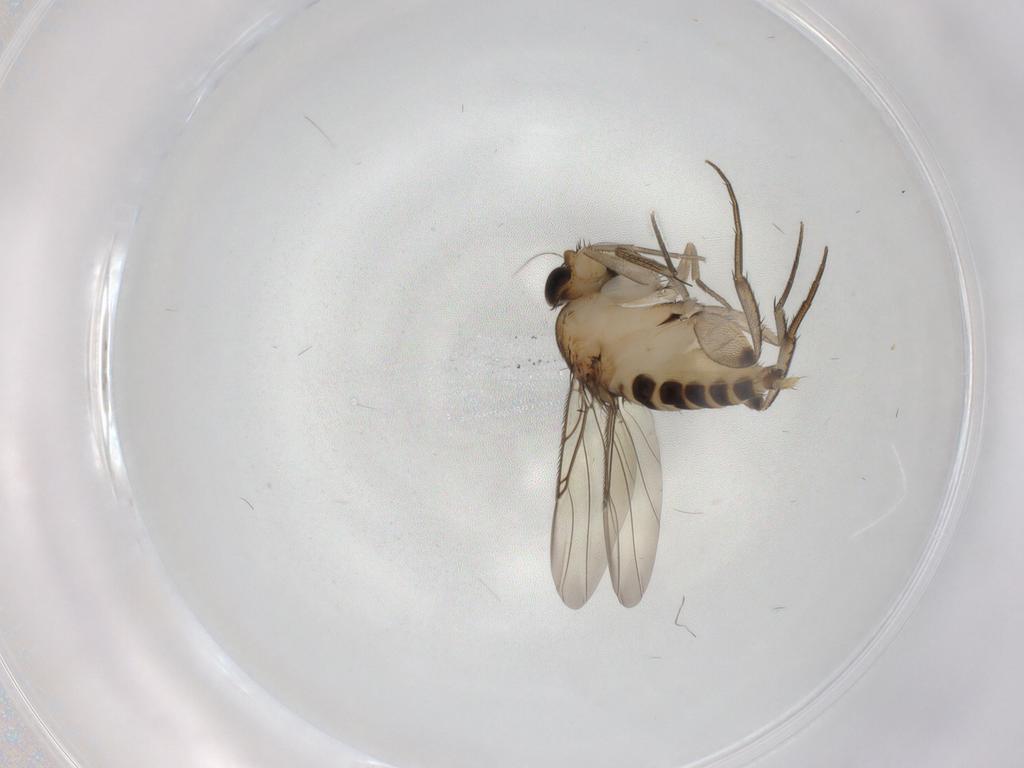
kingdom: Animalia
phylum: Arthropoda
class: Insecta
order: Diptera
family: Phoridae
